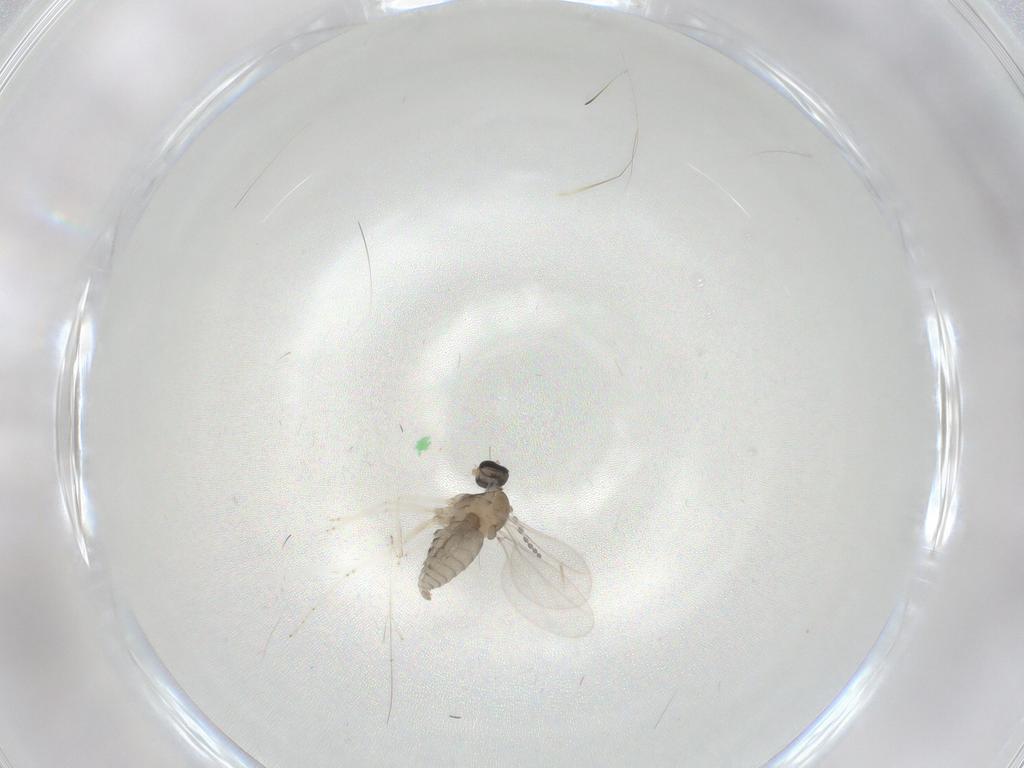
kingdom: Animalia
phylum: Arthropoda
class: Insecta
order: Diptera
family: Cecidomyiidae
